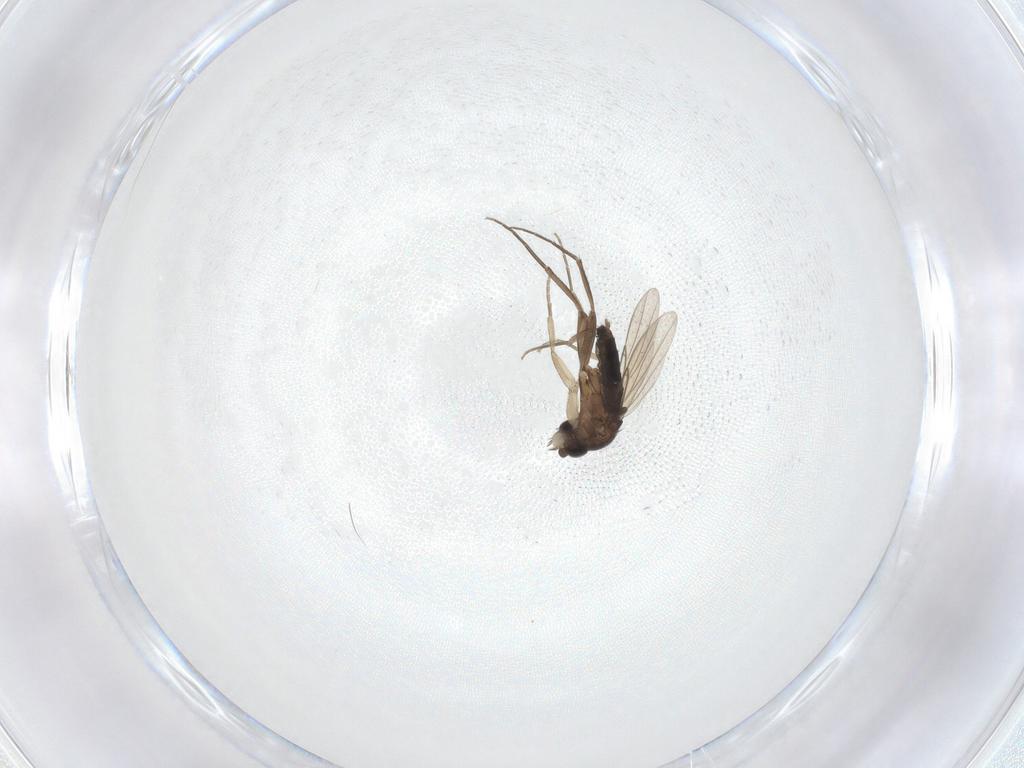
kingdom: Animalia
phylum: Arthropoda
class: Insecta
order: Diptera
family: Phoridae
